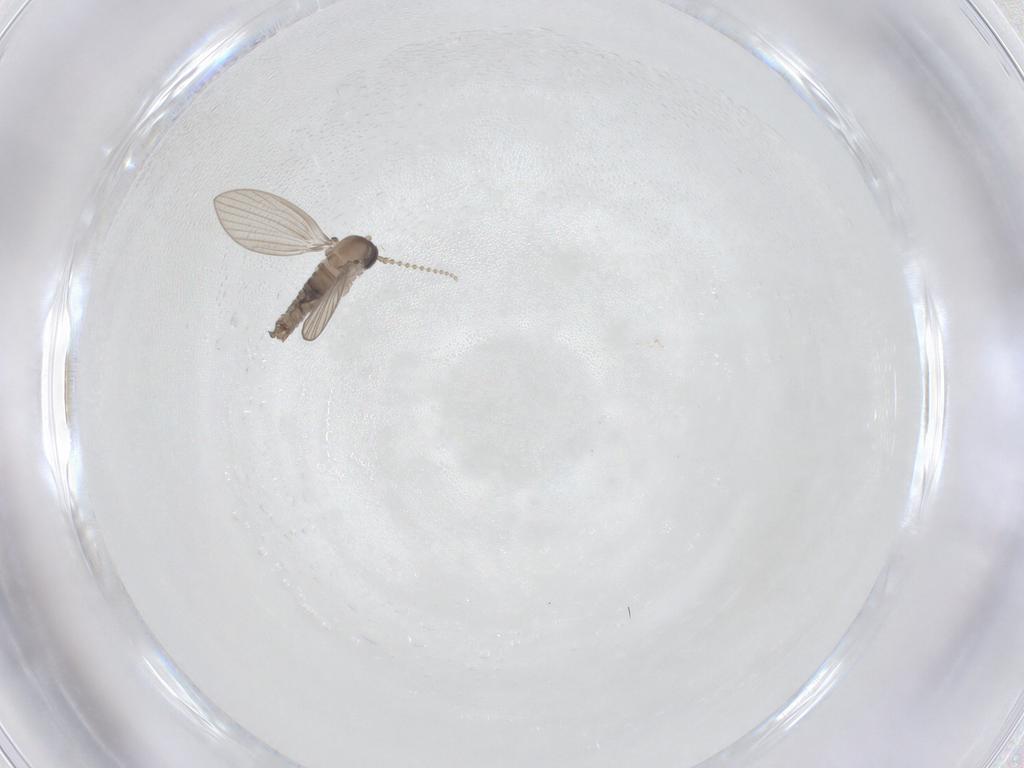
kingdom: Animalia
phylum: Arthropoda
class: Insecta
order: Diptera
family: Psychodidae
